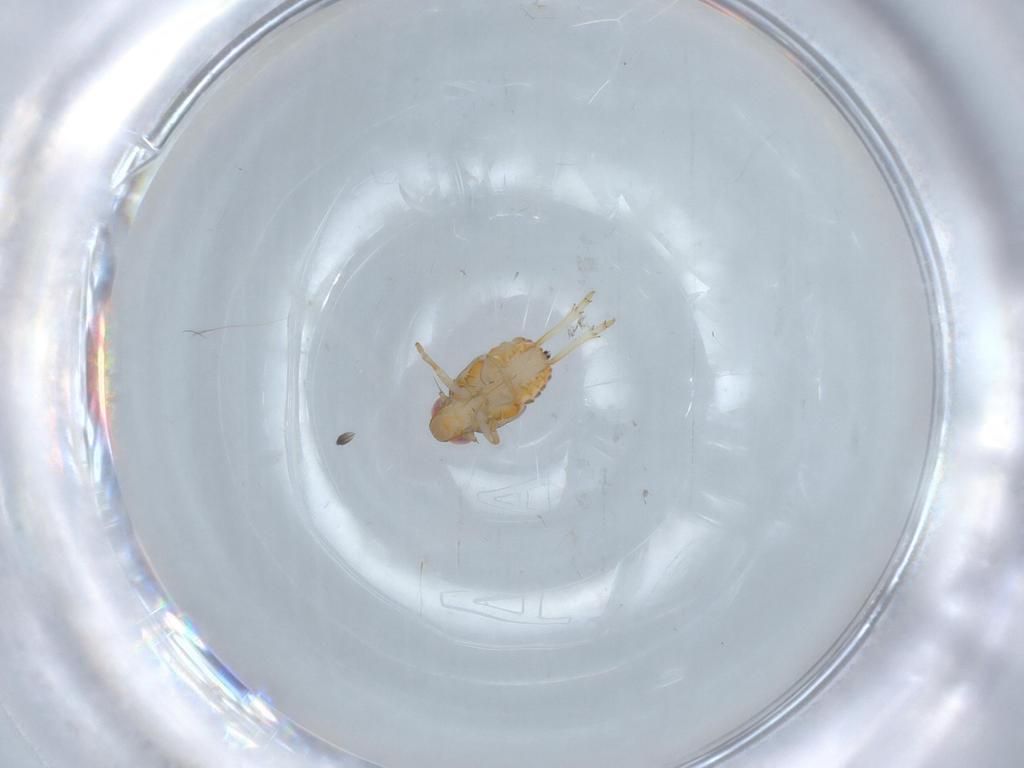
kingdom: Animalia
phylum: Arthropoda
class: Insecta
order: Hemiptera
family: Issidae
